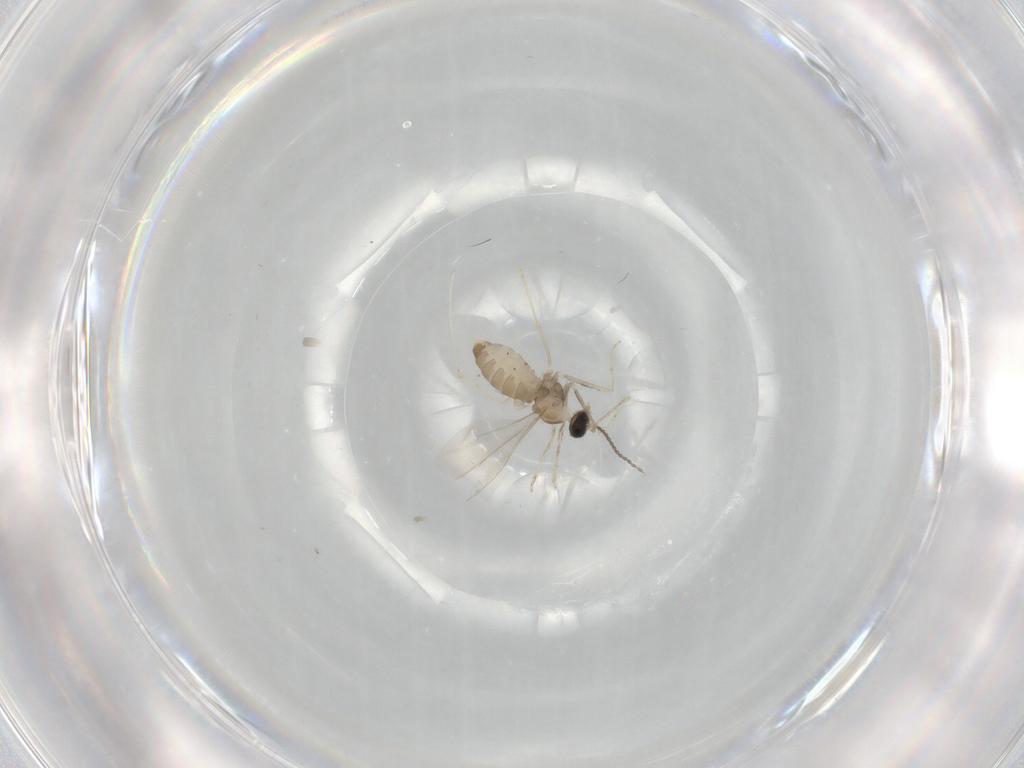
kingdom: Animalia
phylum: Arthropoda
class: Insecta
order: Diptera
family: Cecidomyiidae
